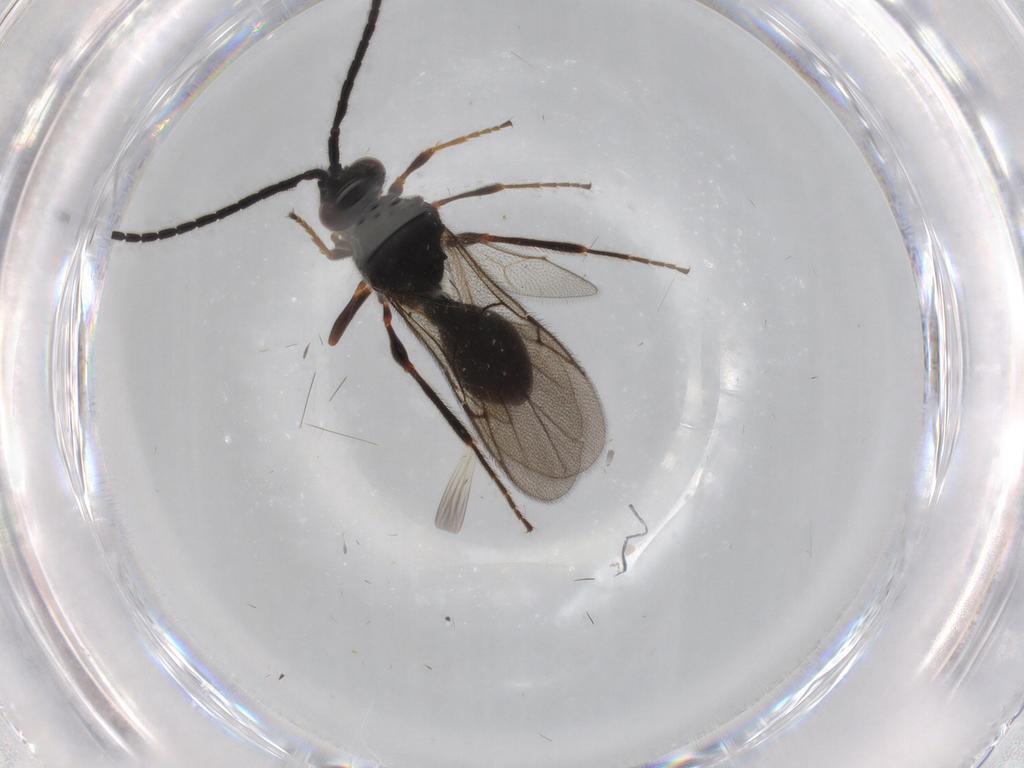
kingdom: Animalia
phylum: Arthropoda
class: Insecta
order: Hymenoptera
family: Diapriidae
